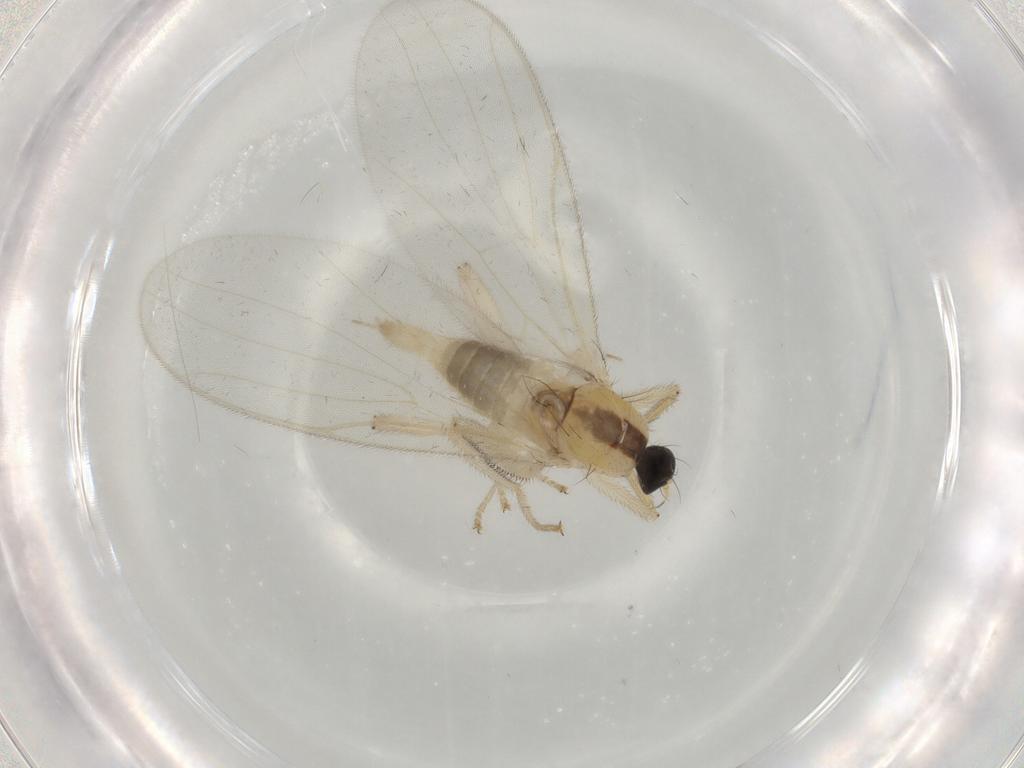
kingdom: Animalia
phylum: Arthropoda
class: Insecta
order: Diptera
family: Hybotidae
